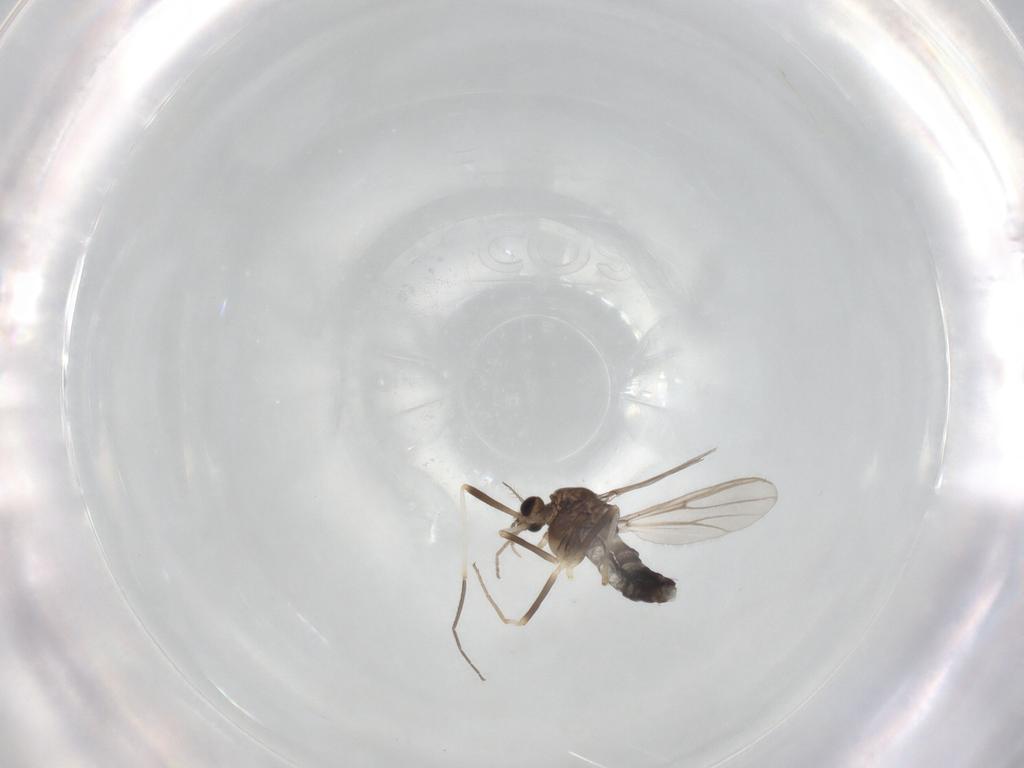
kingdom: Animalia
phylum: Arthropoda
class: Insecta
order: Diptera
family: Chironomidae
